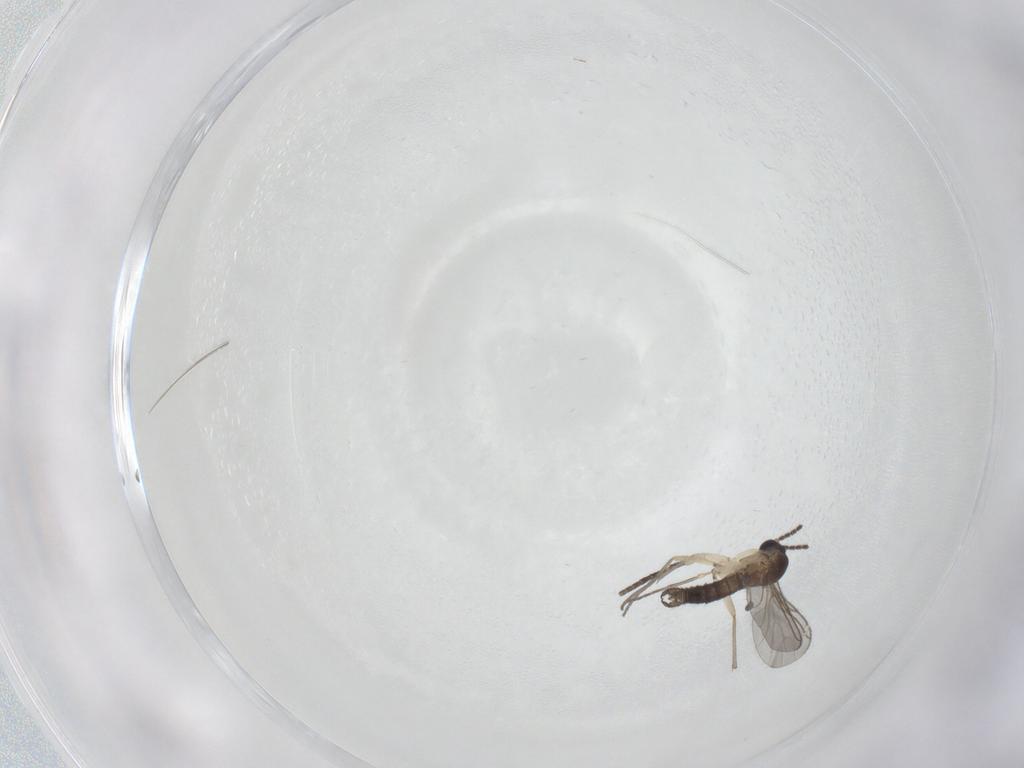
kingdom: Animalia
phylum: Arthropoda
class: Insecta
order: Diptera
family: Sciaridae
